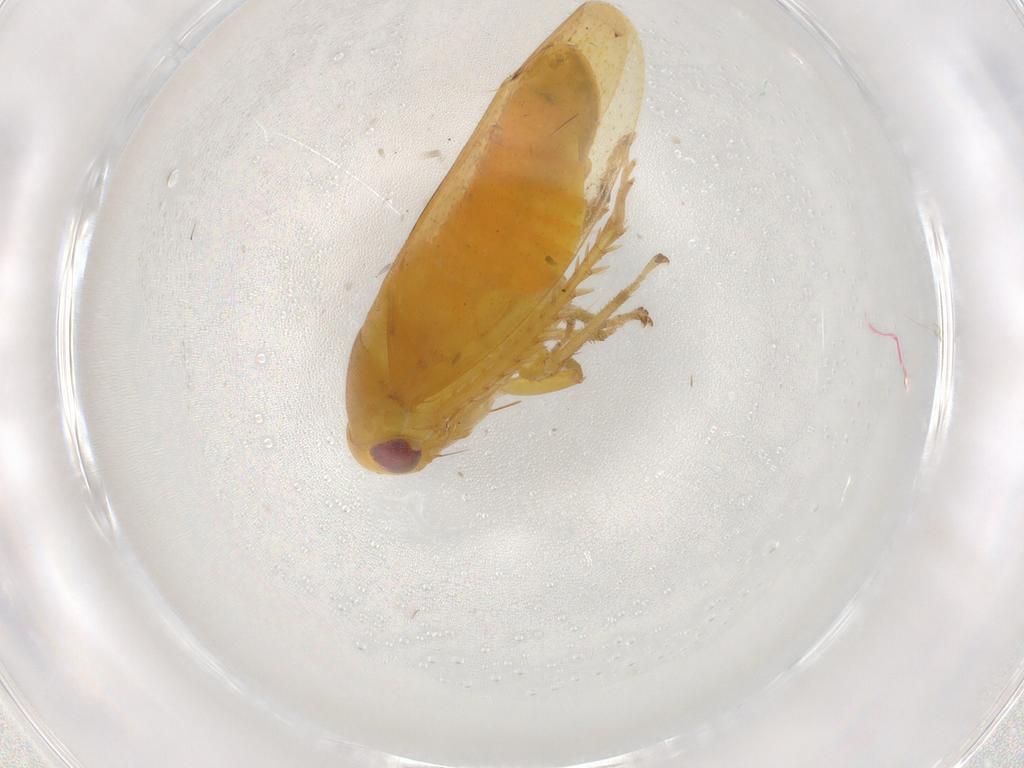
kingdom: Animalia
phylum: Arthropoda
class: Insecta
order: Hemiptera
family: Cicadellidae
